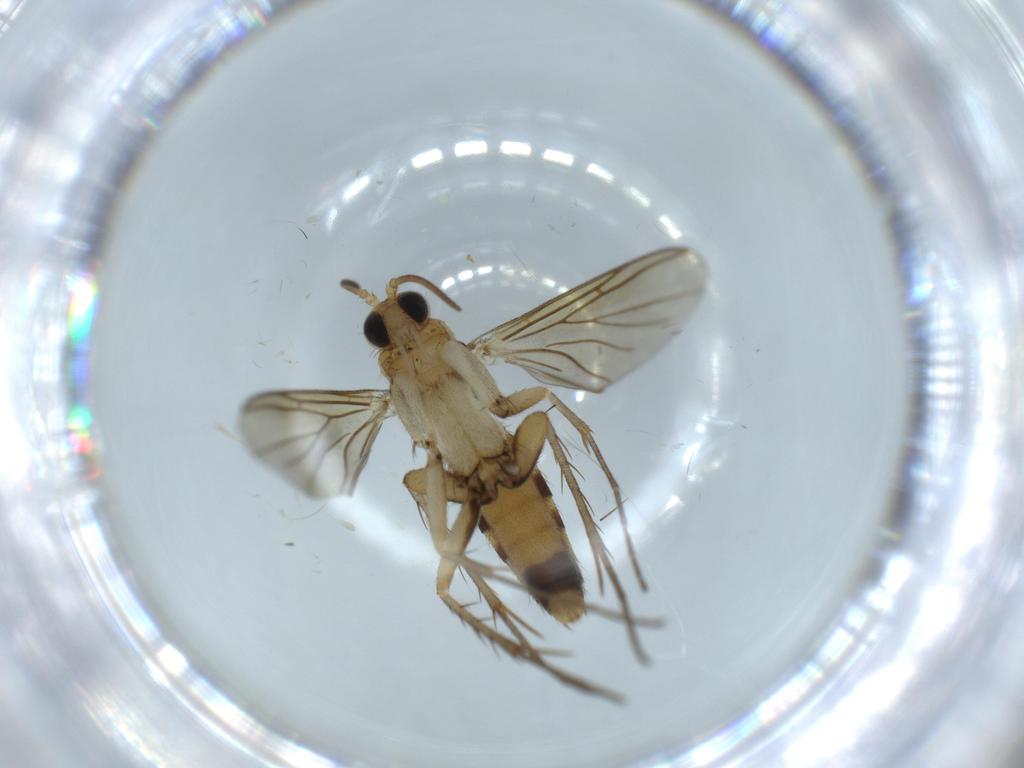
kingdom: Animalia
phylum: Arthropoda
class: Insecta
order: Diptera
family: Mycetophilidae
